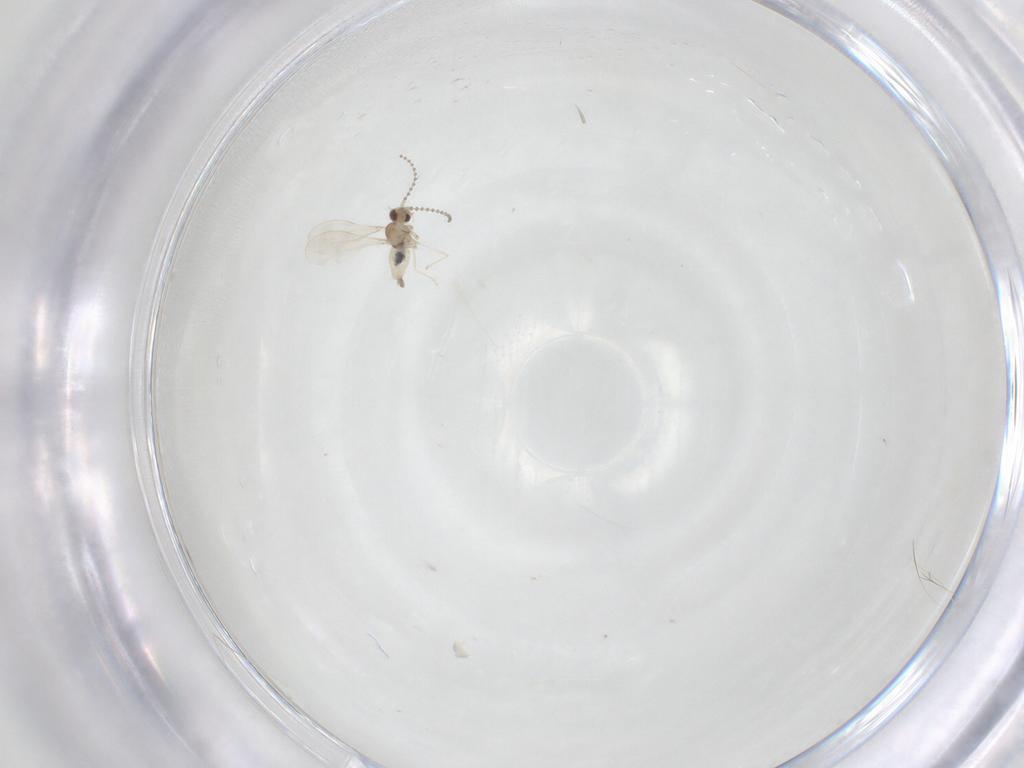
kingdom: Animalia
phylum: Arthropoda
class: Insecta
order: Diptera
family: Cecidomyiidae
